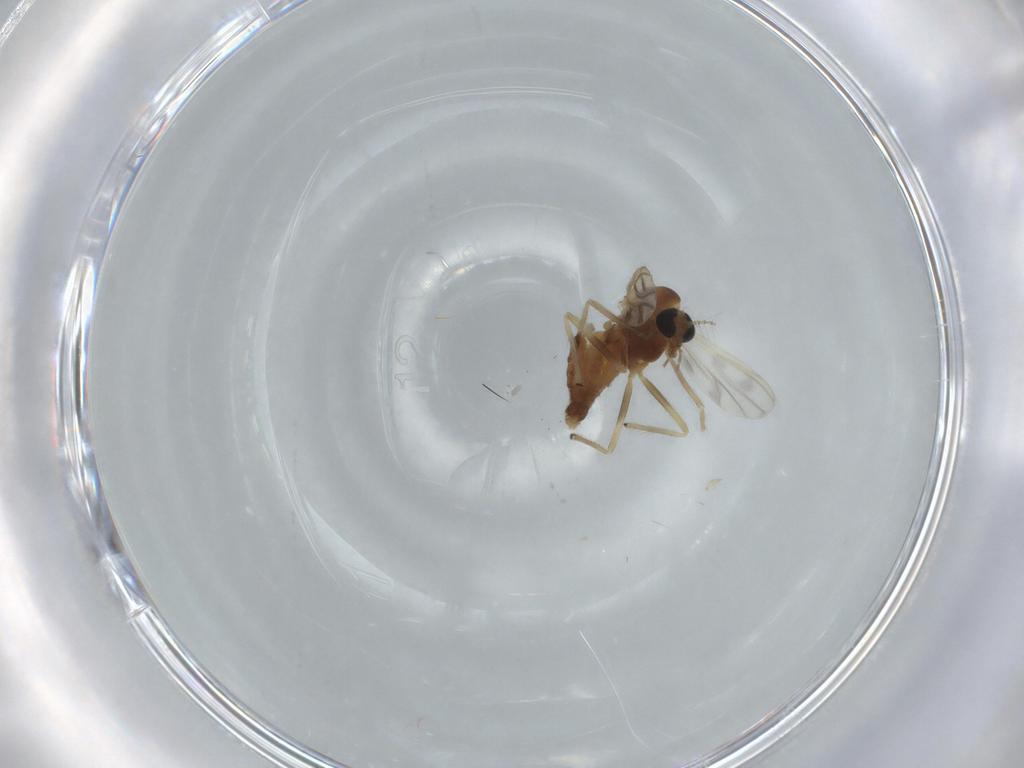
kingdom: Animalia
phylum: Arthropoda
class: Insecta
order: Diptera
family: Chironomidae
